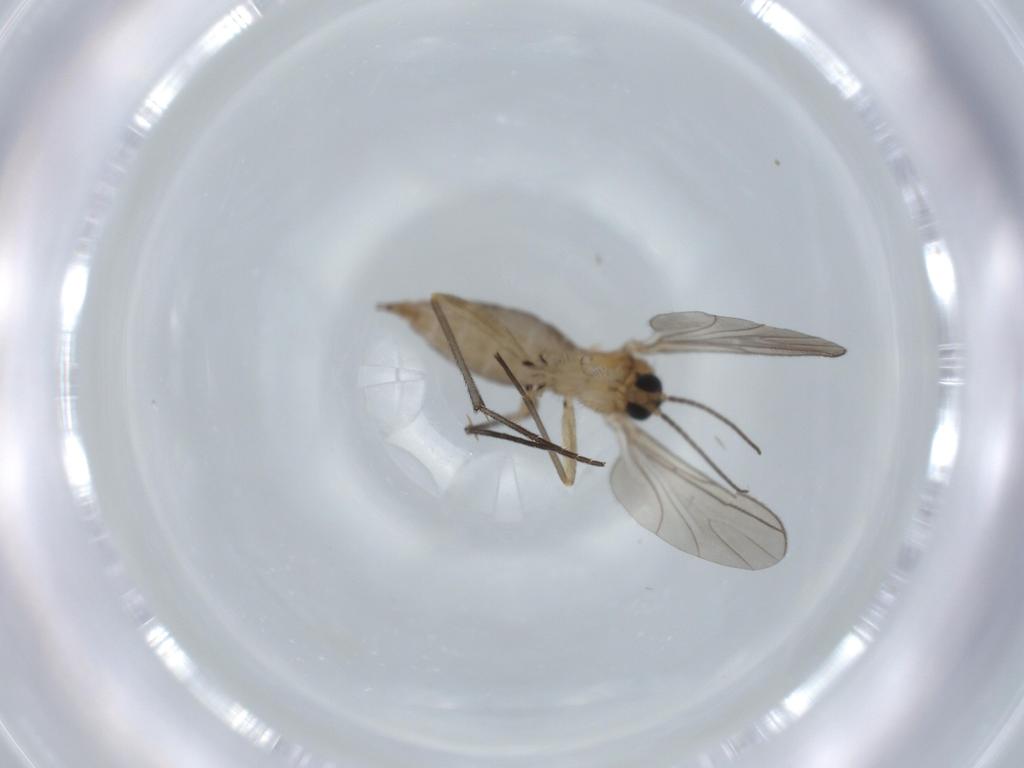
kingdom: Animalia
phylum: Arthropoda
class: Insecta
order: Diptera
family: Sciaridae
